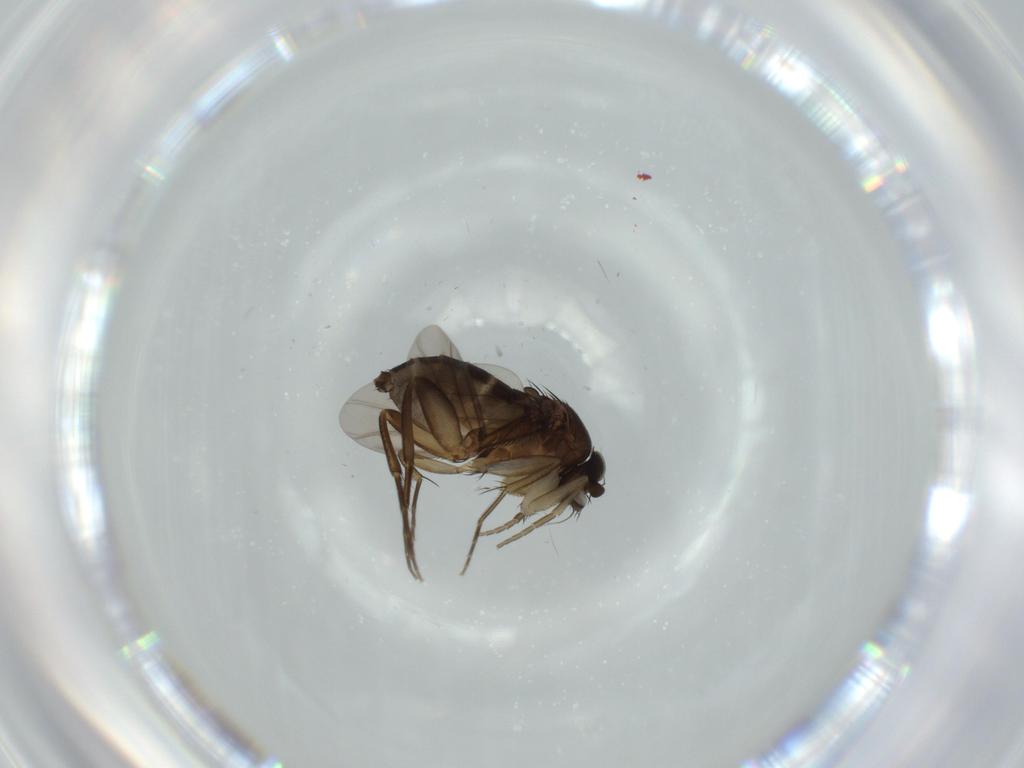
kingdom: Animalia
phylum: Arthropoda
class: Insecta
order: Diptera
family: Phoridae
